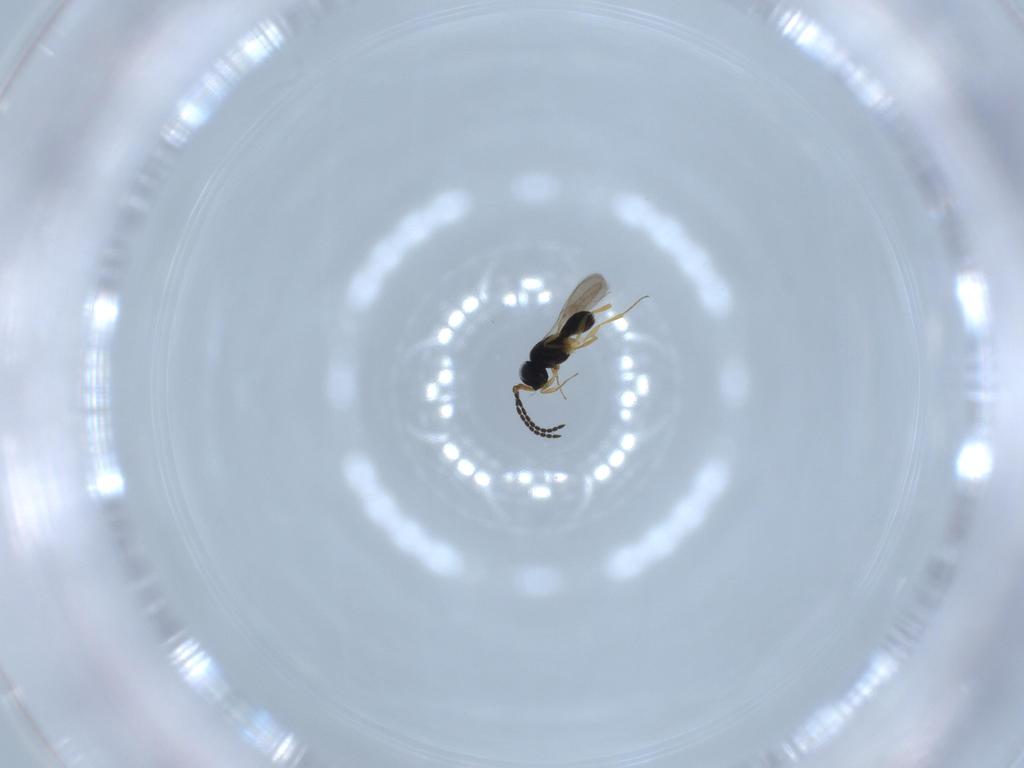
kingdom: Animalia
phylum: Arthropoda
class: Insecta
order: Hymenoptera
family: Scelionidae
